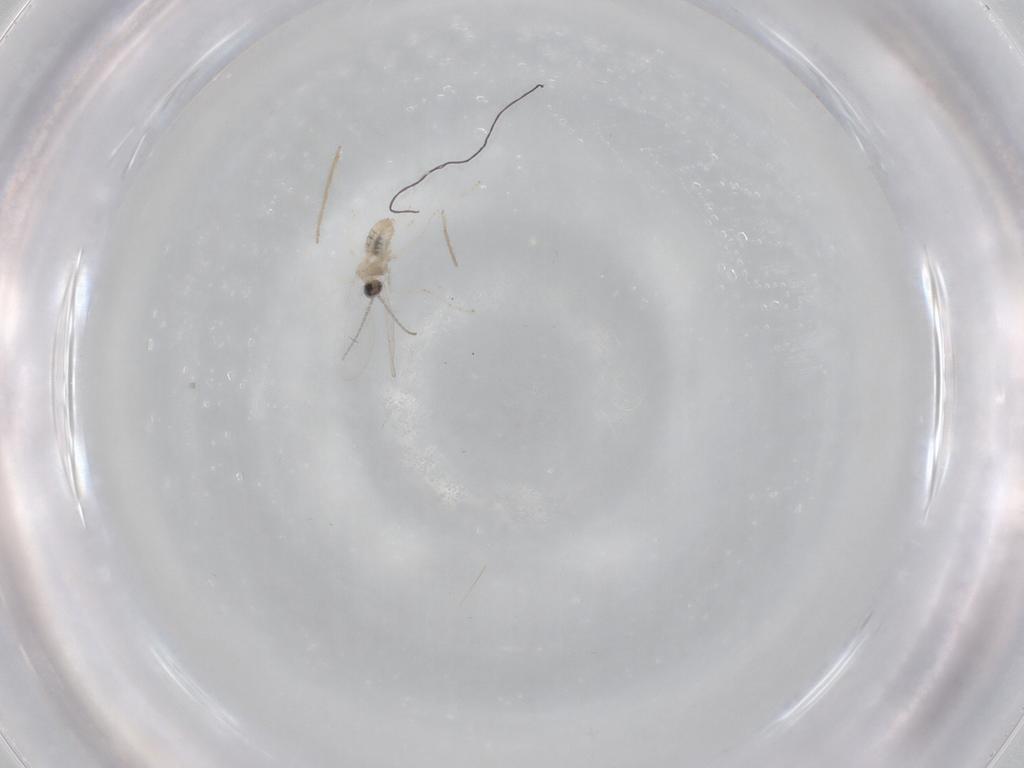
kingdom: Animalia
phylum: Arthropoda
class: Insecta
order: Diptera
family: Cecidomyiidae
